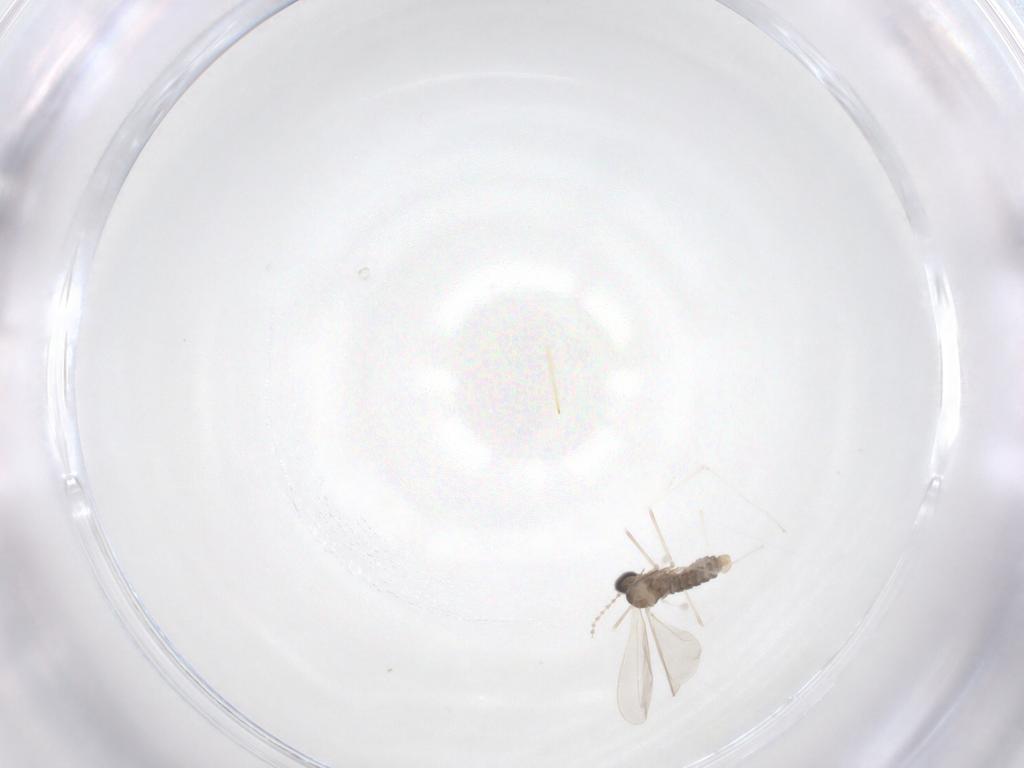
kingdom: Animalia
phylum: Arthropoda
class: Insecta
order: Diptera
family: Cecidomyiidae
